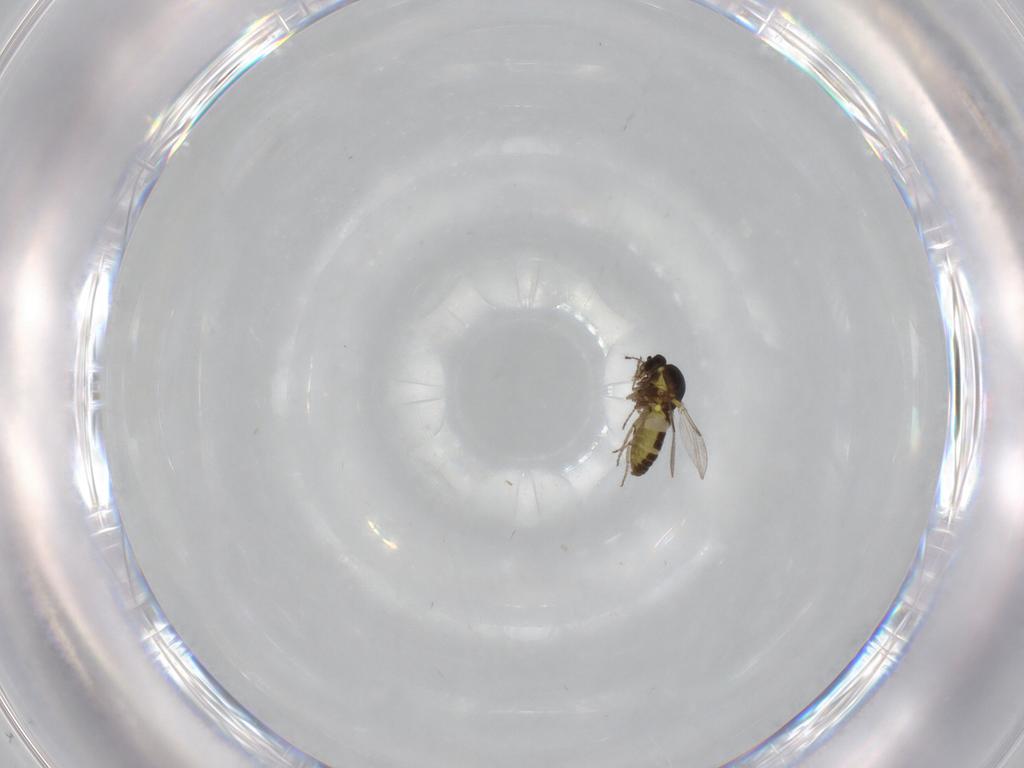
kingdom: Animalia
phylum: Arthropoda
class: Insecta
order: Diptera
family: Ceratopogonidae
